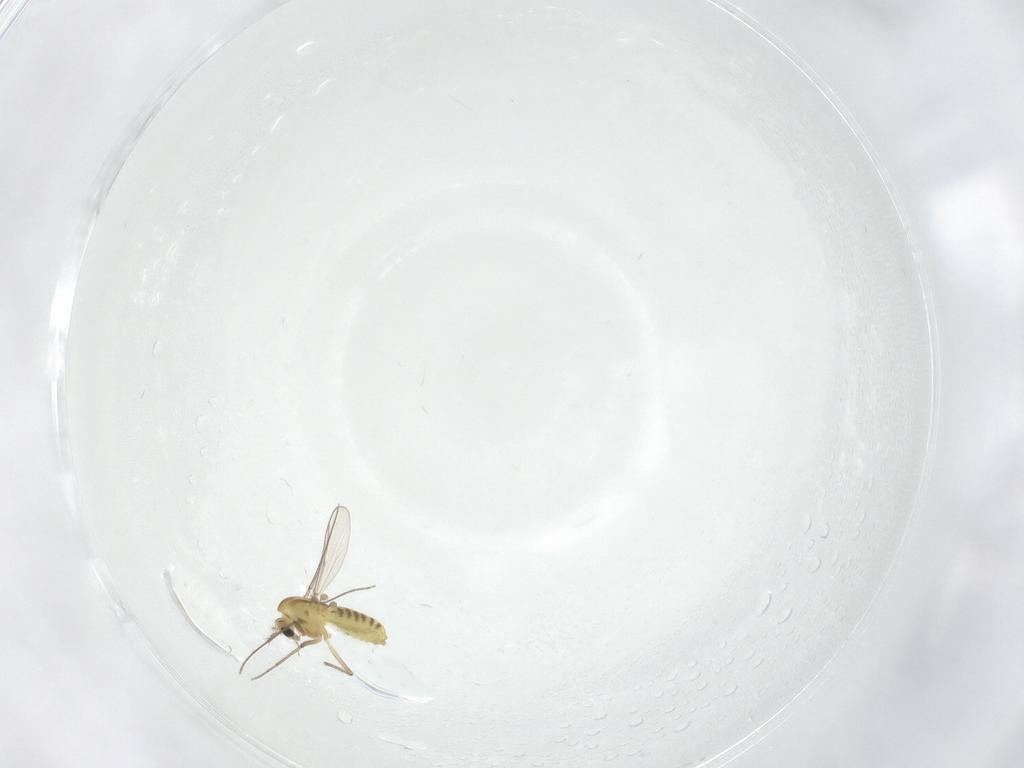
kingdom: Animalia
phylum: Arthropoda
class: Insecta
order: Diptera
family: Chironomidae
